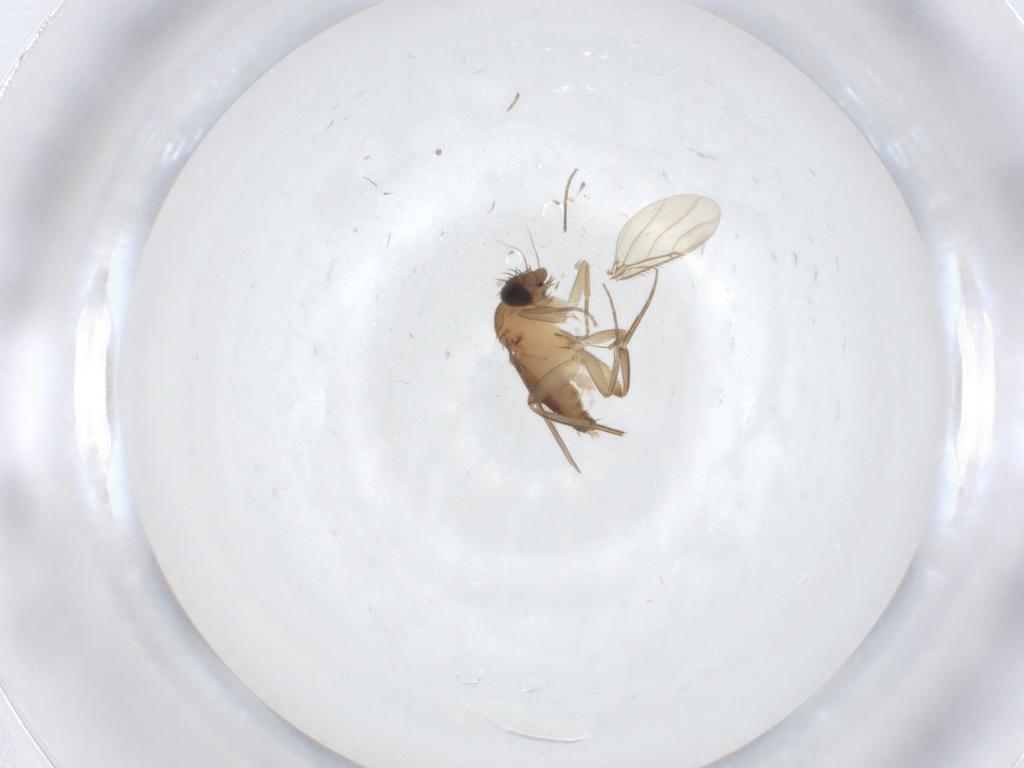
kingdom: Animalia
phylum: Arthropoda
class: Insecta
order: Diptera
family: Phoridae
